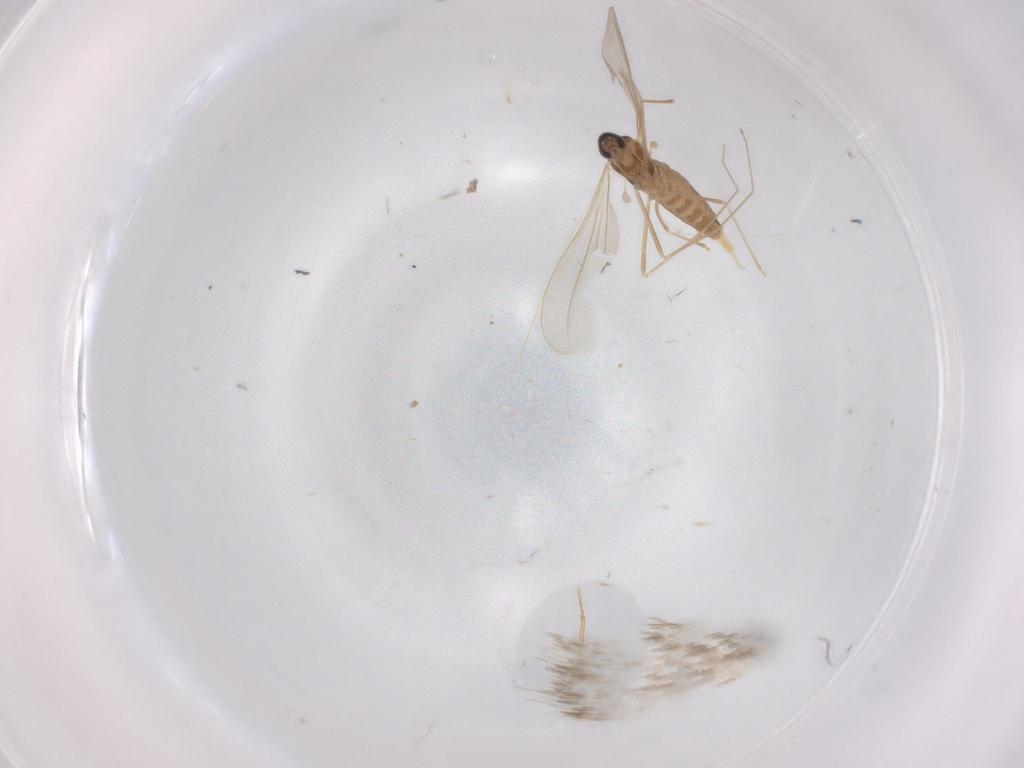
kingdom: Animalia
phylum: Arthropoda
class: Insecta
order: Diptera
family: Cecidomyiidae
